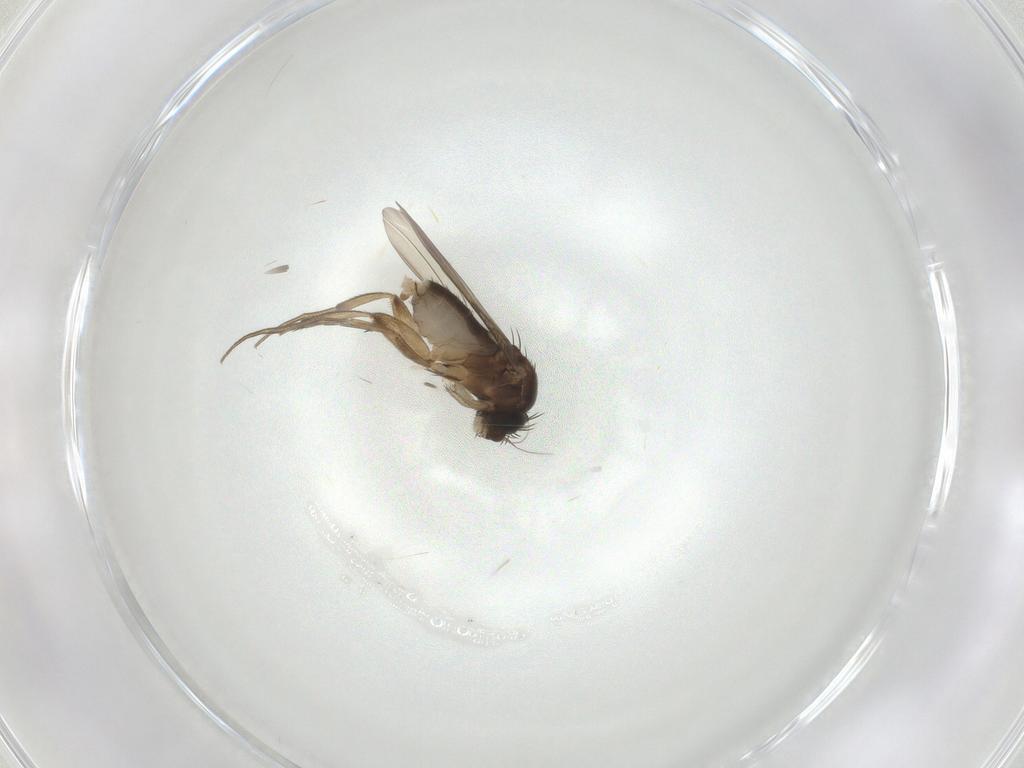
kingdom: Animalia
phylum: Arthropoda
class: Insecta
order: Diptera
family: Phoridae
